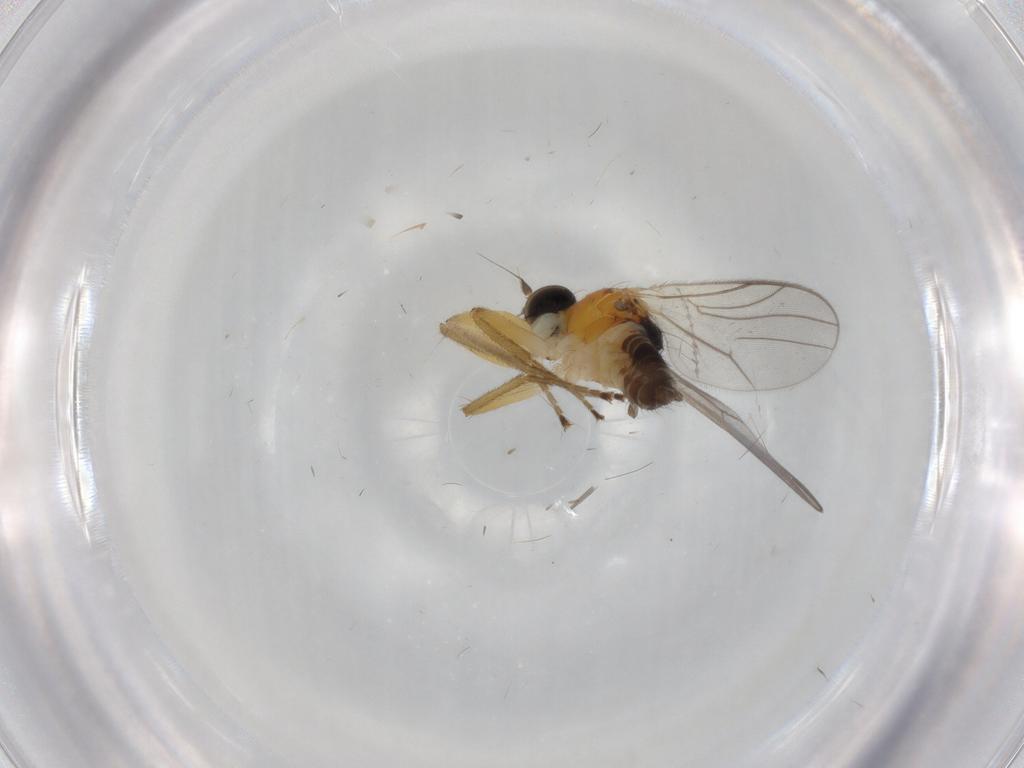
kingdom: Animalia
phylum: Arthropoda
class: Insecta
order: Diptera
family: Hybotidae
